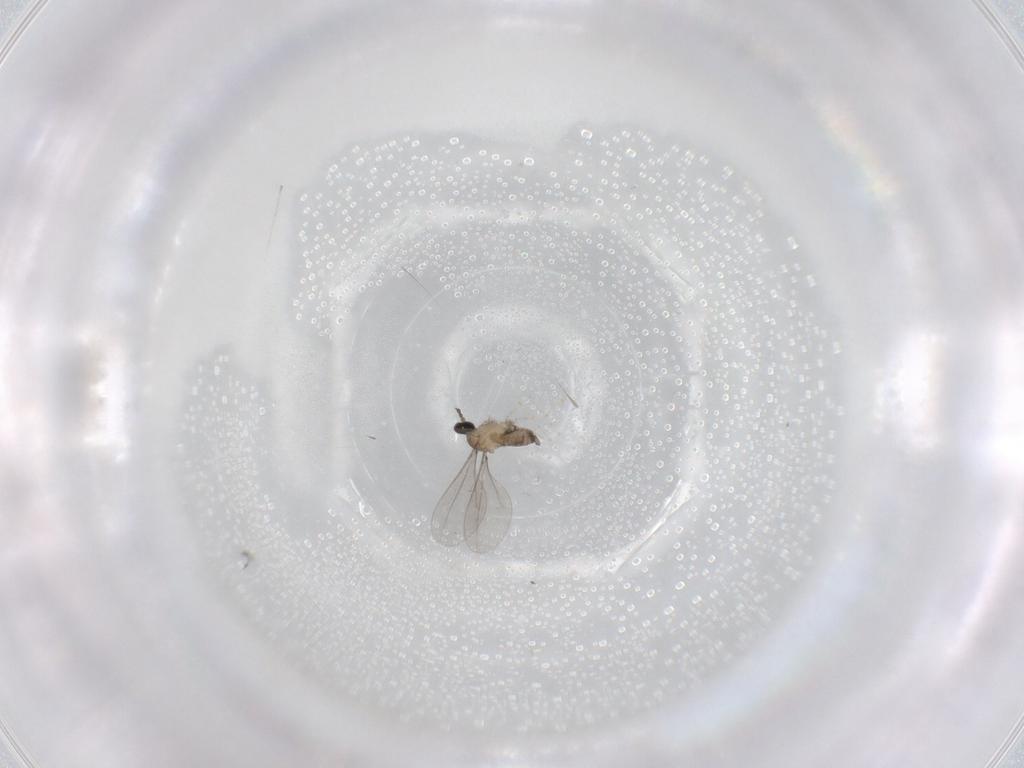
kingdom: Animalia
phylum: Arthropoda
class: Insecta
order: Diptera
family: Cecidomyiidae
